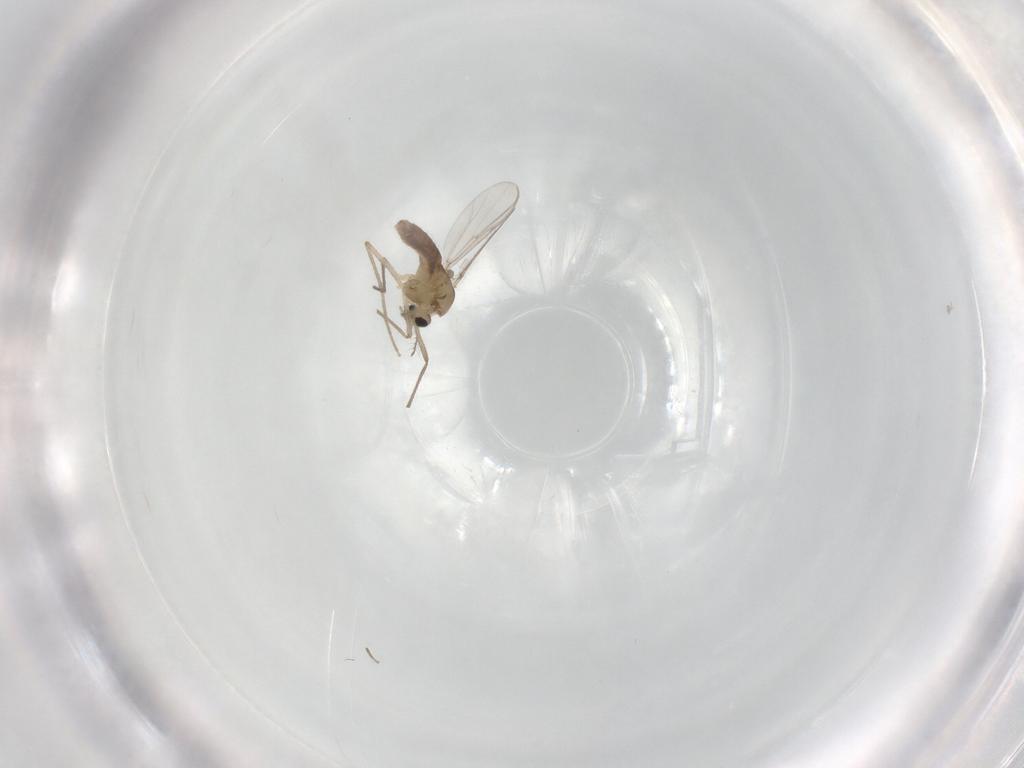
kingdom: Animalia
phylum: Arthropoda
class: Insecta
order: Diptera
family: Chironomidae
